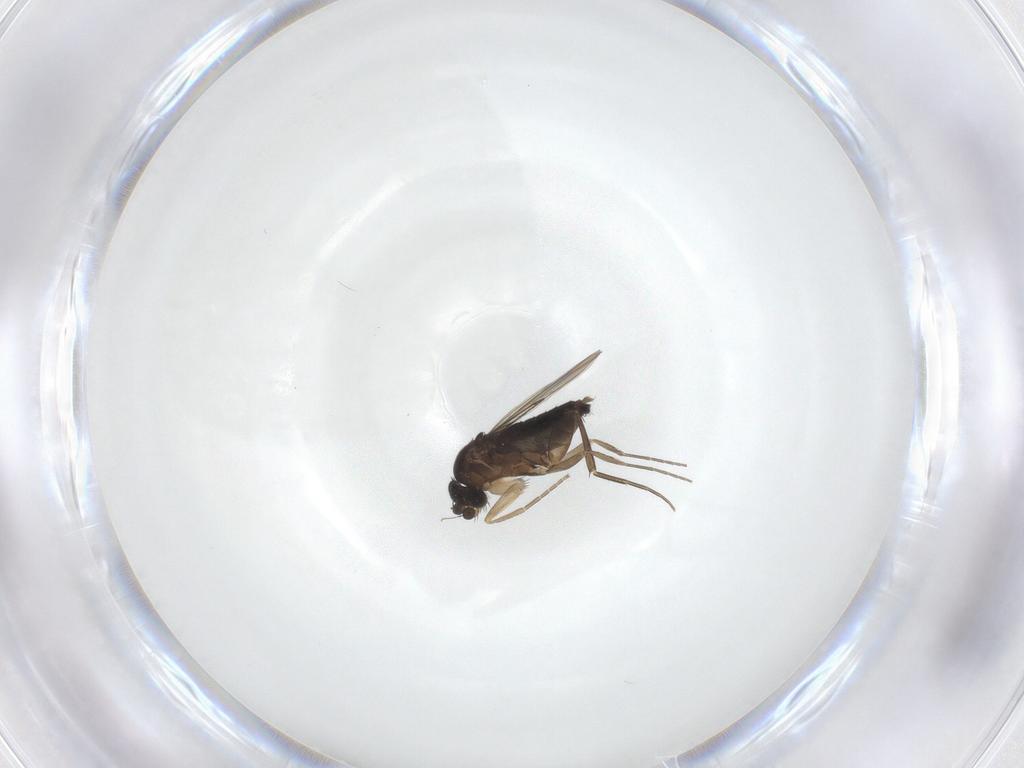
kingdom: Animalia
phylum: Arthropoda
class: Insecta
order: Diptera
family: Phoridae
